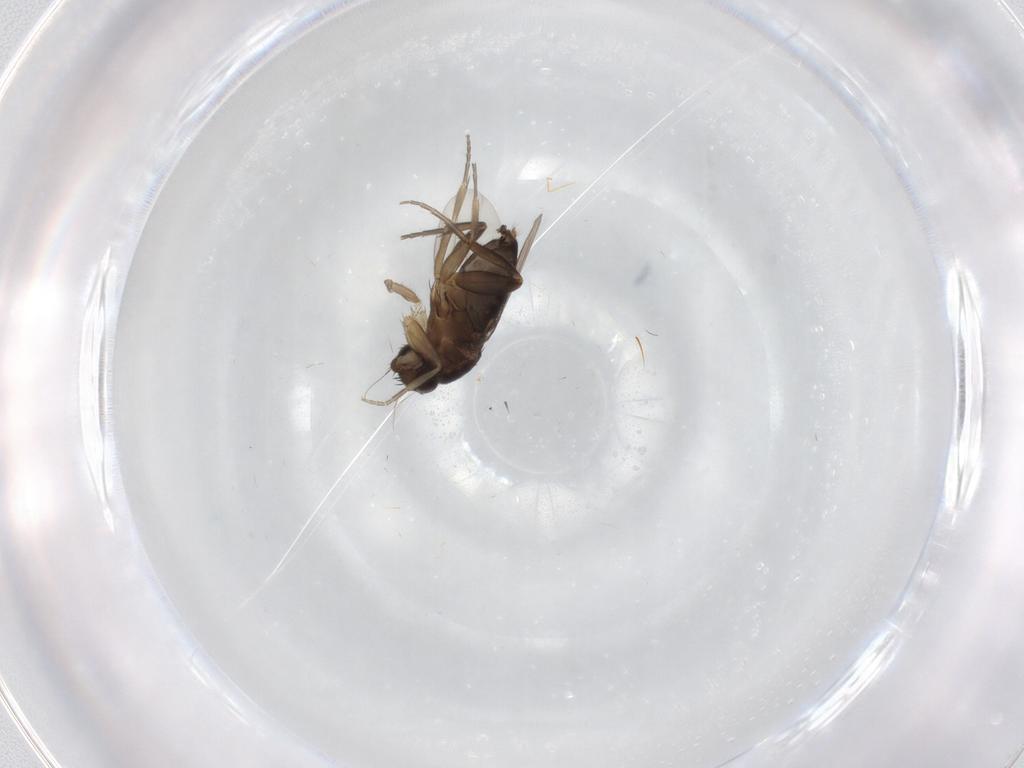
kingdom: Animalia
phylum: Arthropoda
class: Insecta
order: Diptera
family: Phoridae
